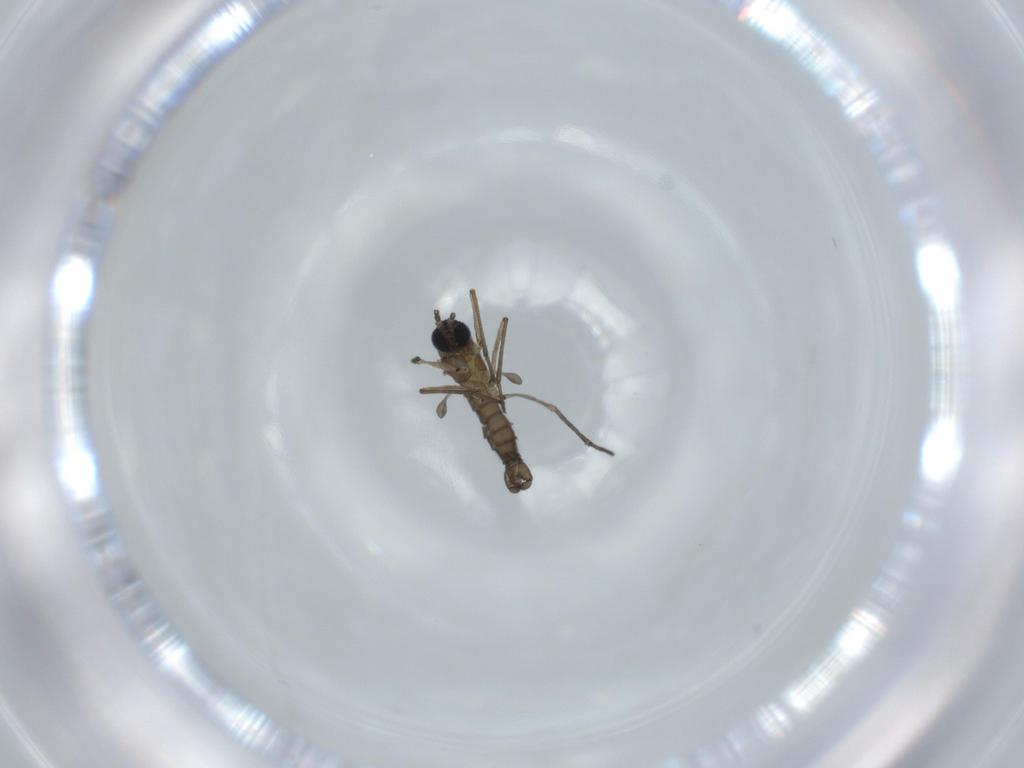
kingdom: Animalia
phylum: Arthropoda
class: Insecta
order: Diptera
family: Sciaridae
